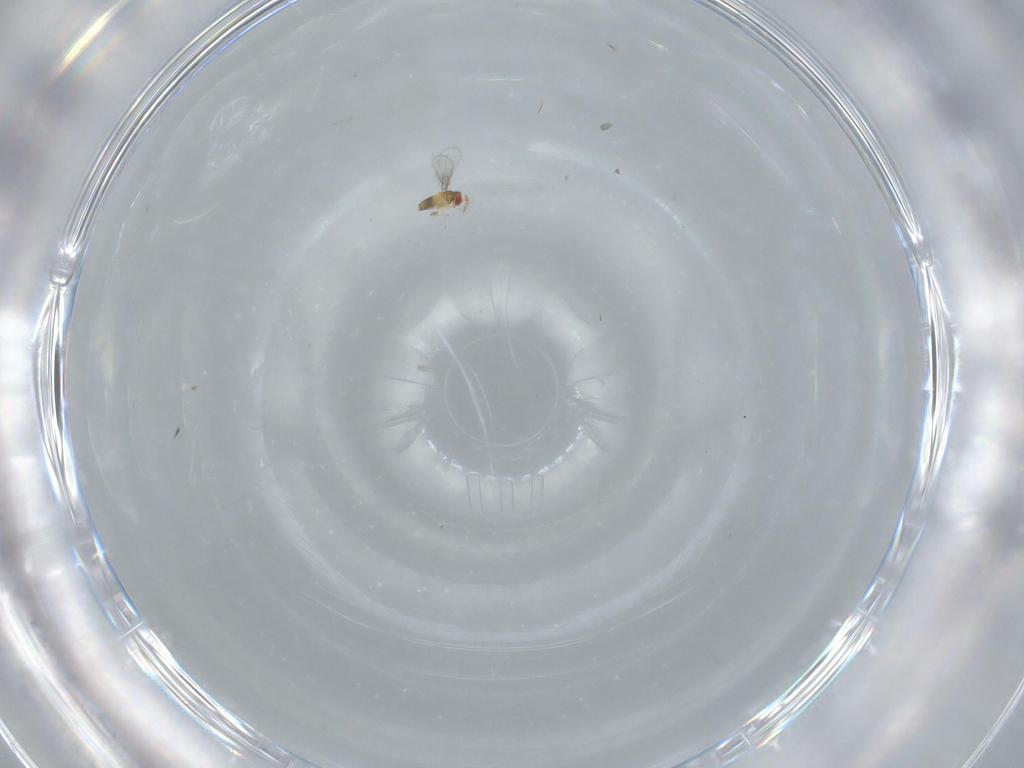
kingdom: Animalia
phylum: Arthropoda
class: Insecta
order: Hymenoptera
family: Trichogrammatidae
